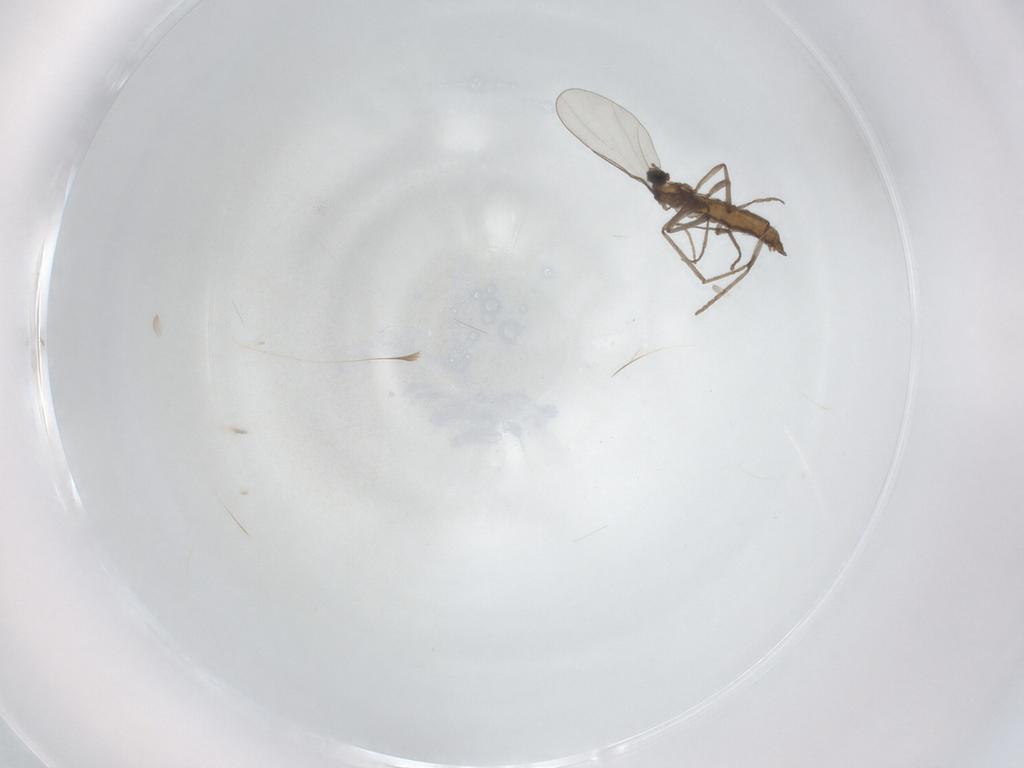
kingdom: Animalia
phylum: Arthropoda
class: Insecta
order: Diptera
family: Cecidomyiidae
